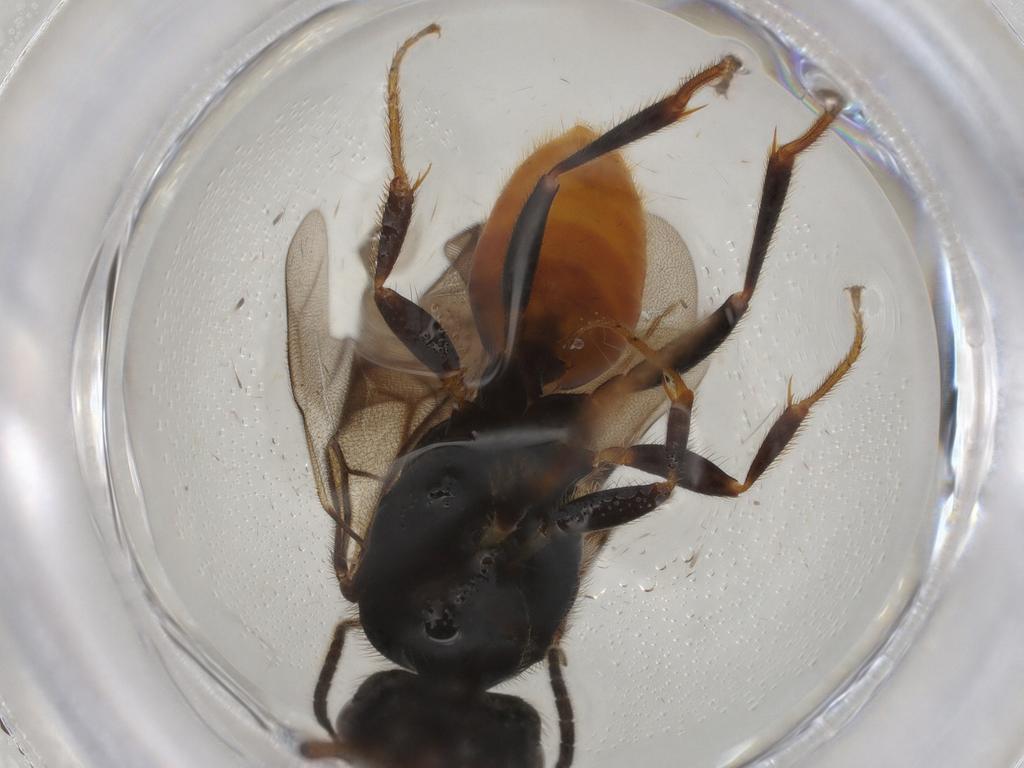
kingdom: Animalia
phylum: Arthropoda
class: Insecta
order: Hymenoptera
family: Bethylidae
